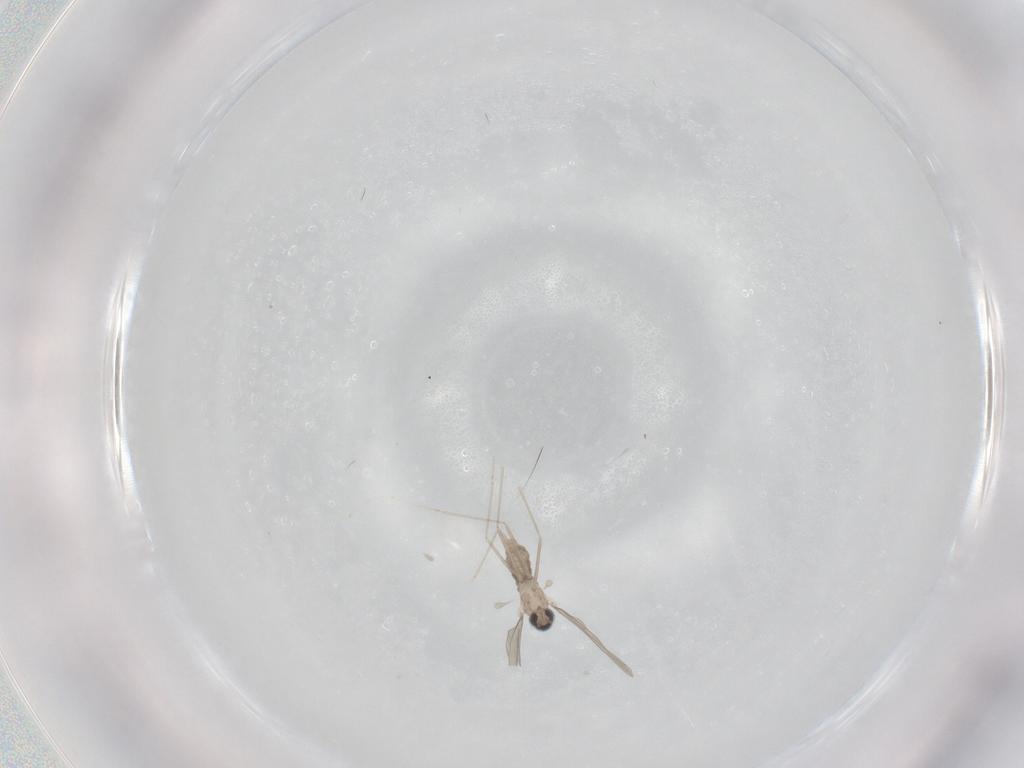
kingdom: Animalia
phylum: Arthropoda
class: Insecta
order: Diptera
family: Cecidomyiidae
